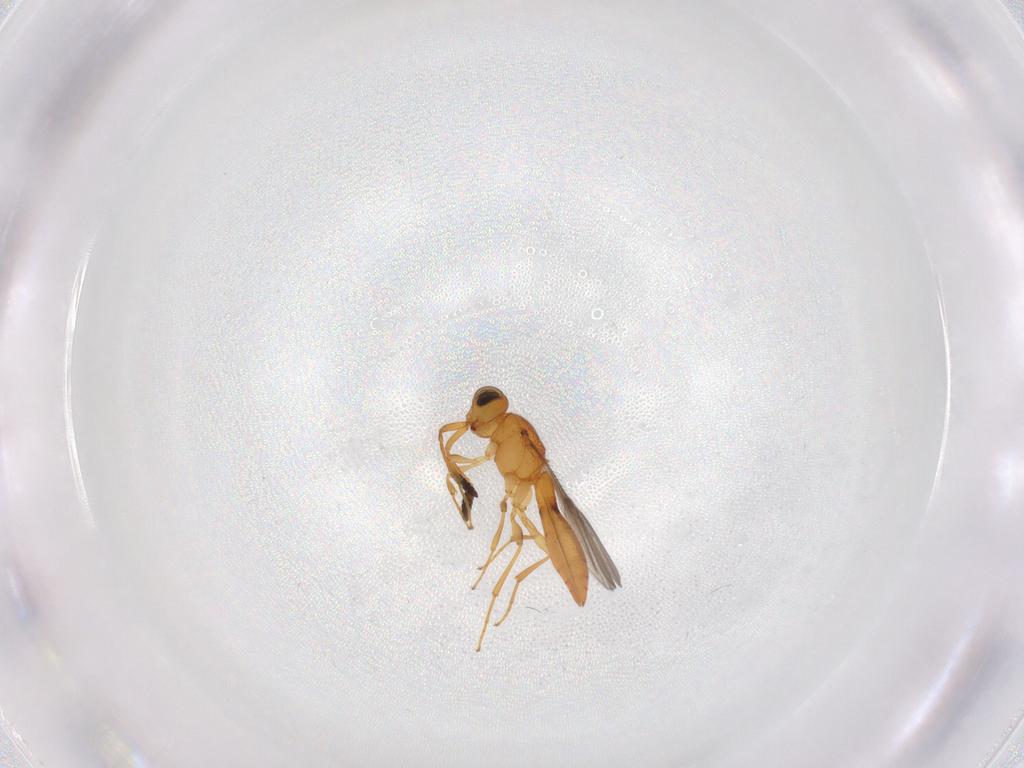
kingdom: Animalia
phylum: Arthropoda
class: Insecta
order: Hymenoptera
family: Scelionidae
